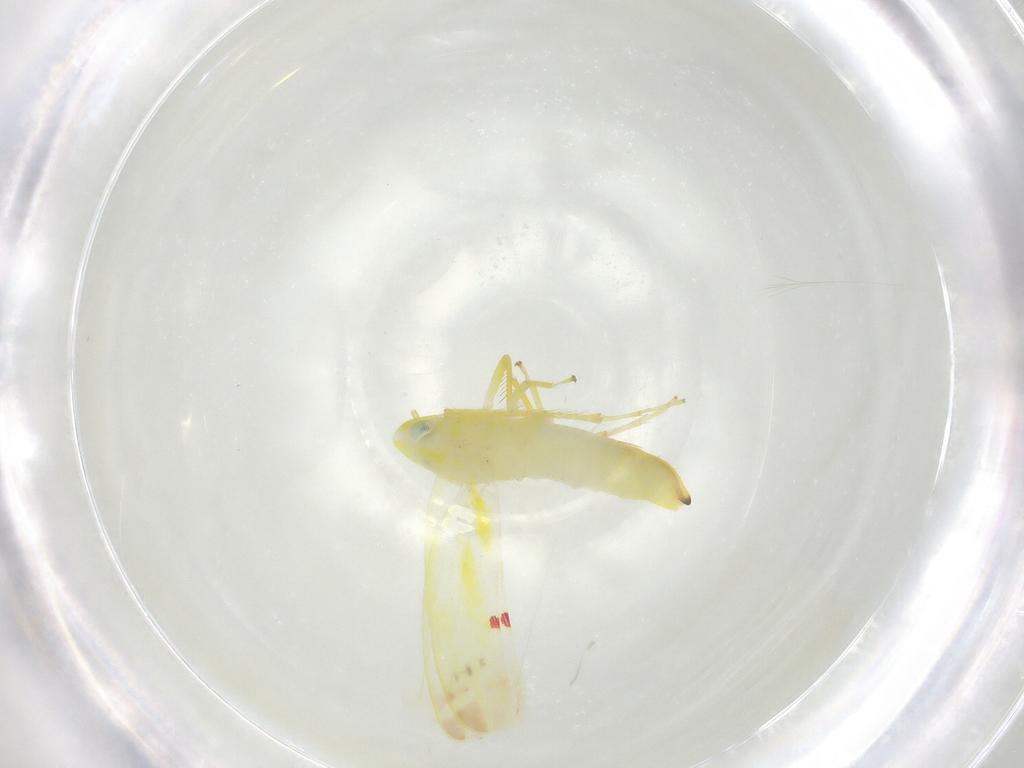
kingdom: Animalia
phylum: Arthropoda
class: Insecta
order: Hemiptera
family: Cicadellidae
